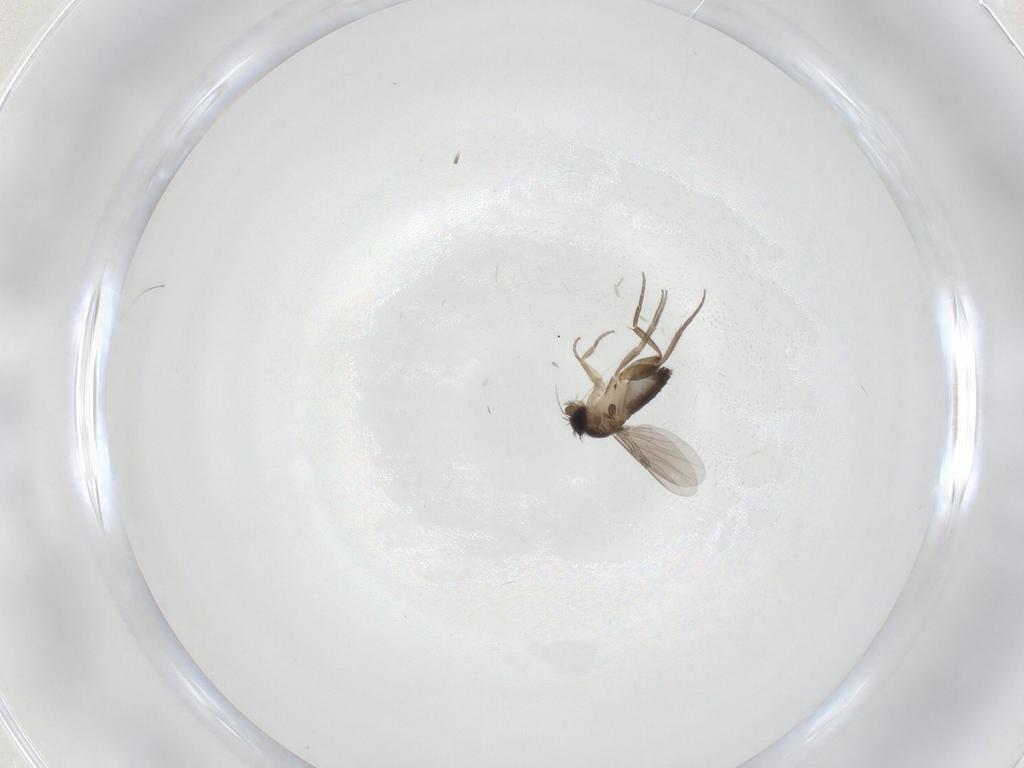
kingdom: Animalia
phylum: Arthropoda
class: Insecta
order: Diptera
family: Phoridae
